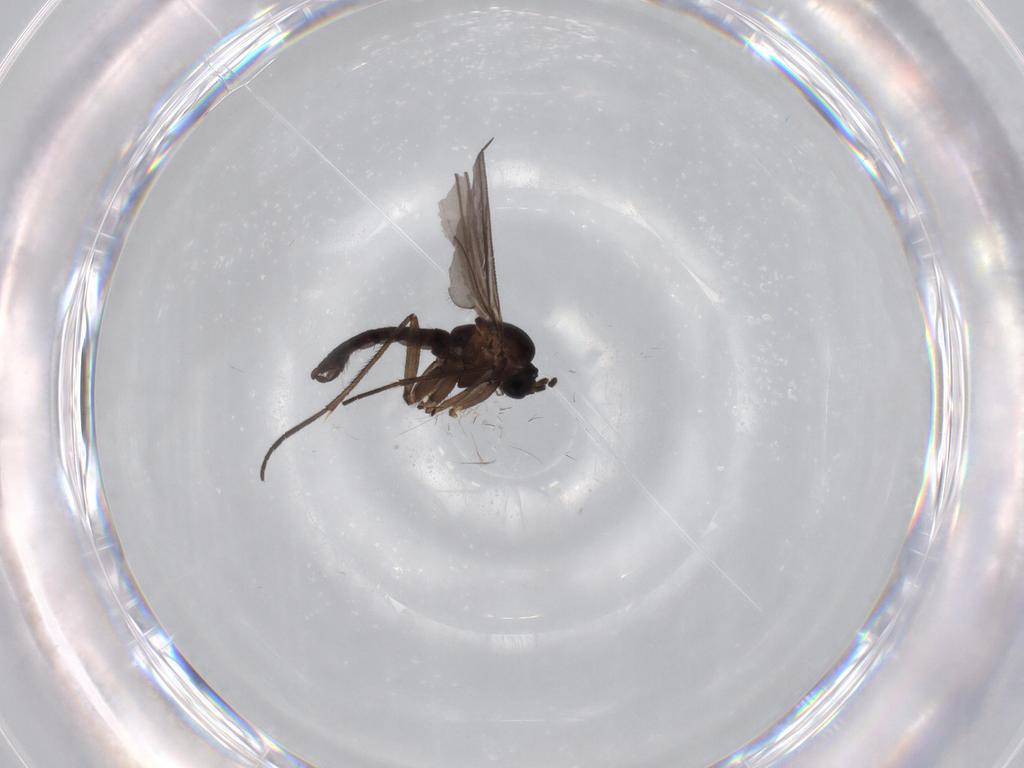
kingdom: Animalia
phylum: Arthropoda
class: Insecta
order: Diptera
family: Sciaridae
